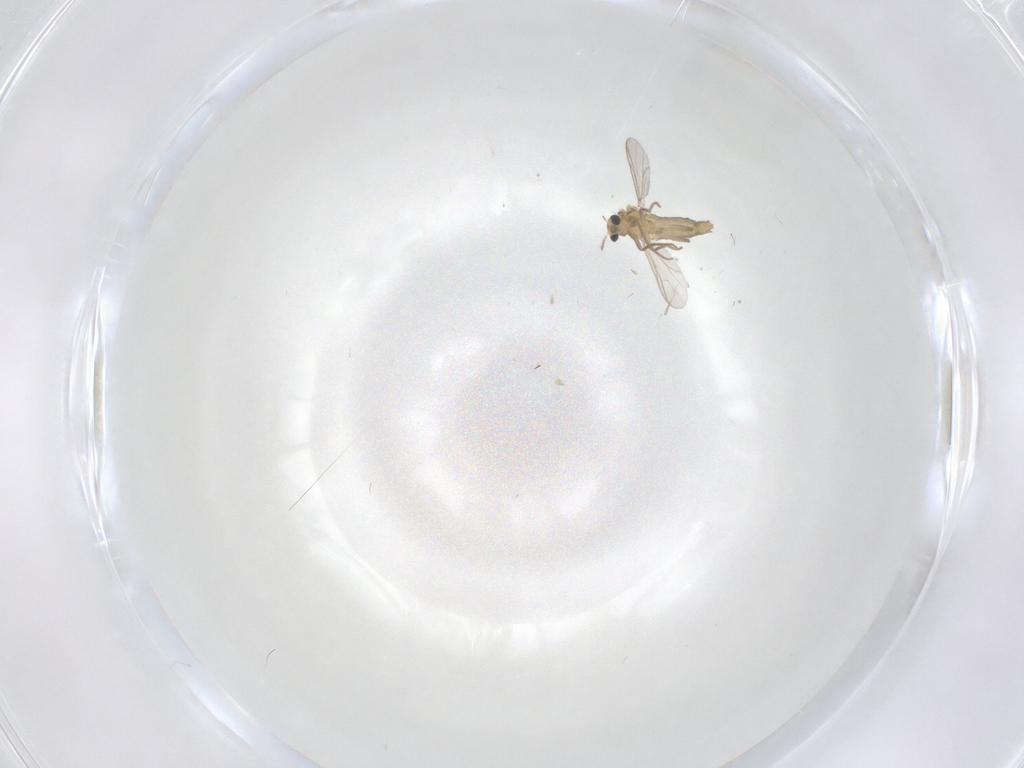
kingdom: Animalia
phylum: Arthropoda
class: Insecta
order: Diptera
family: Chironomidae
